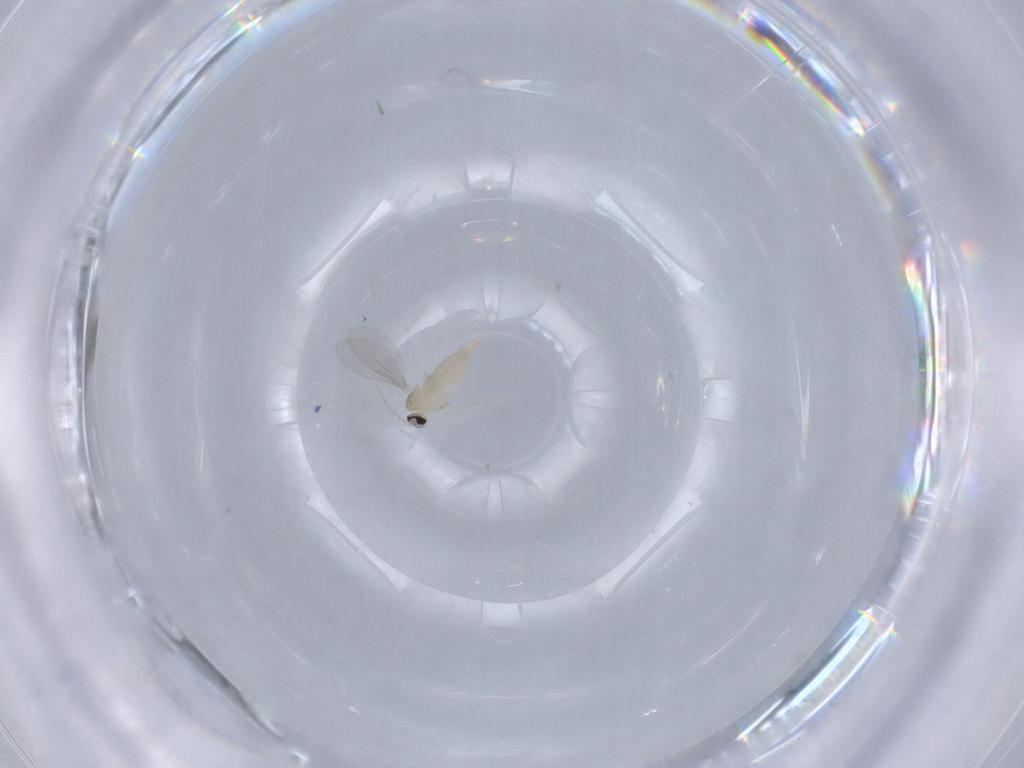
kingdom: Animalia
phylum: Arthropoda
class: Insecta
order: Diptera
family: Cecidomyiidae
